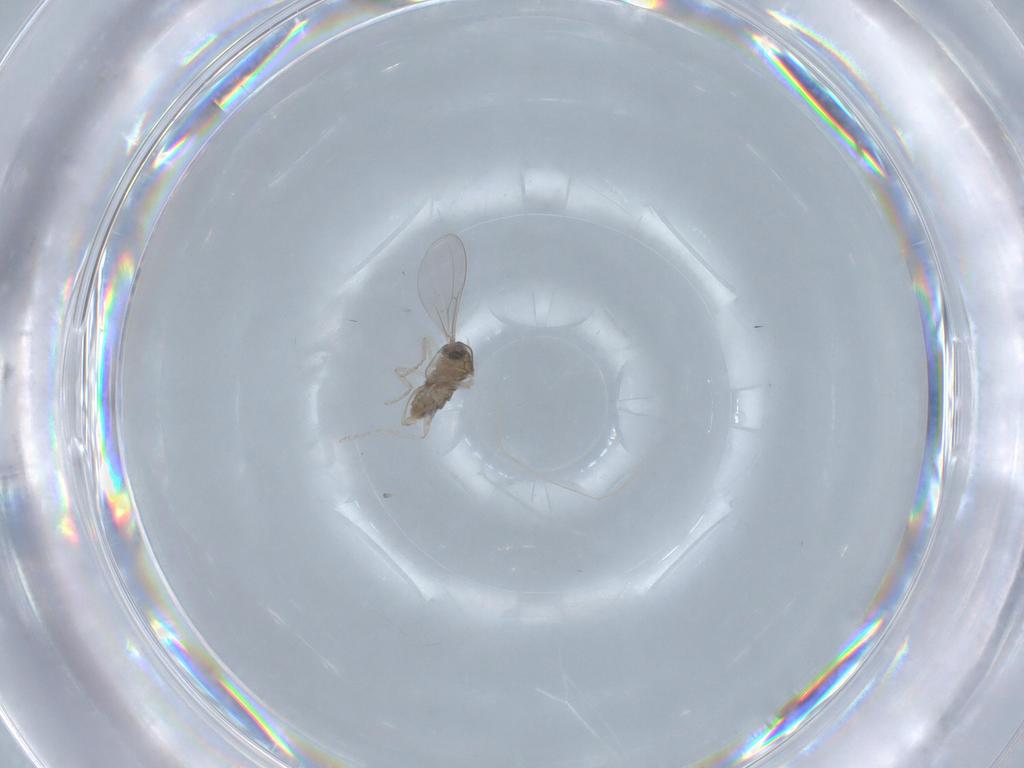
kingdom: Animalia
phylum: Arthropoda
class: Insecta
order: Diptera
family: Cecidomyiidae
